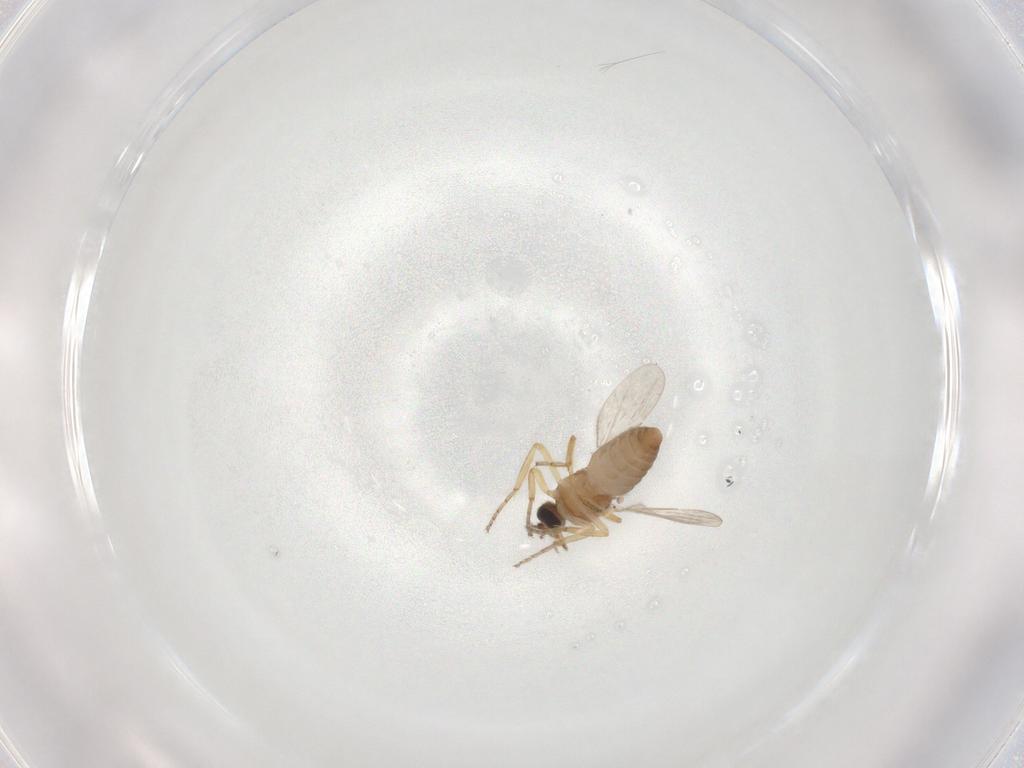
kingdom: Animalia
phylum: Arthropoda
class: Insecta
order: Diptera
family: Ceratopogonidae
